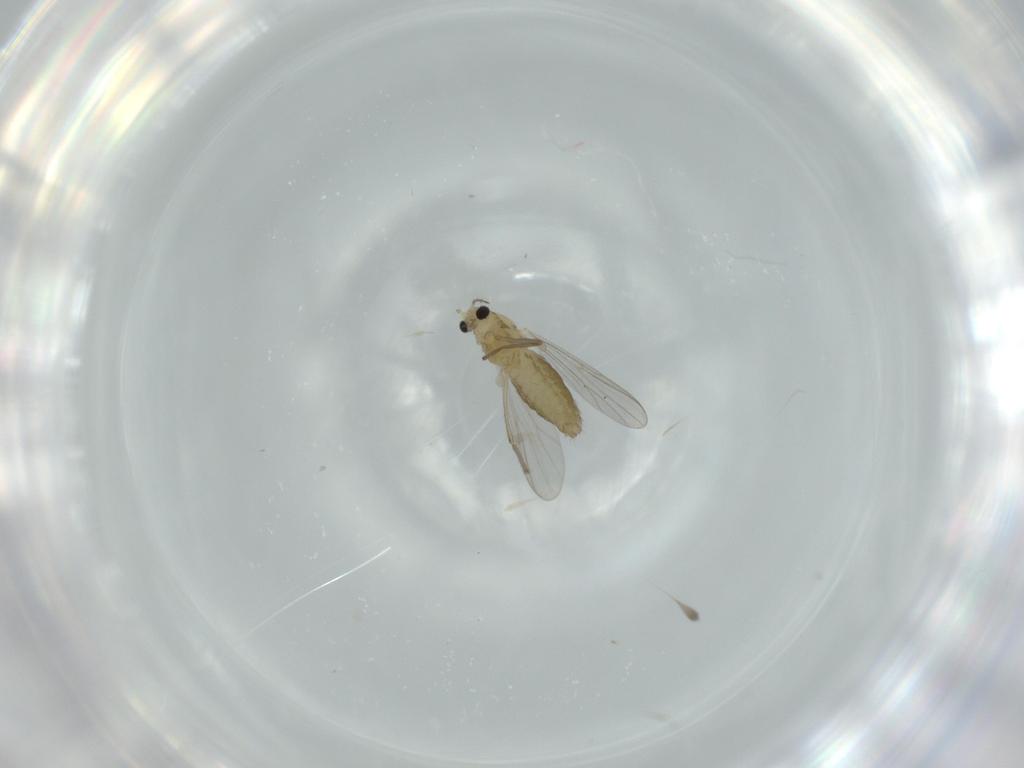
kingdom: Animalia
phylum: Arthropoda
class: Insecta
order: Diptera
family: Chironomidae
